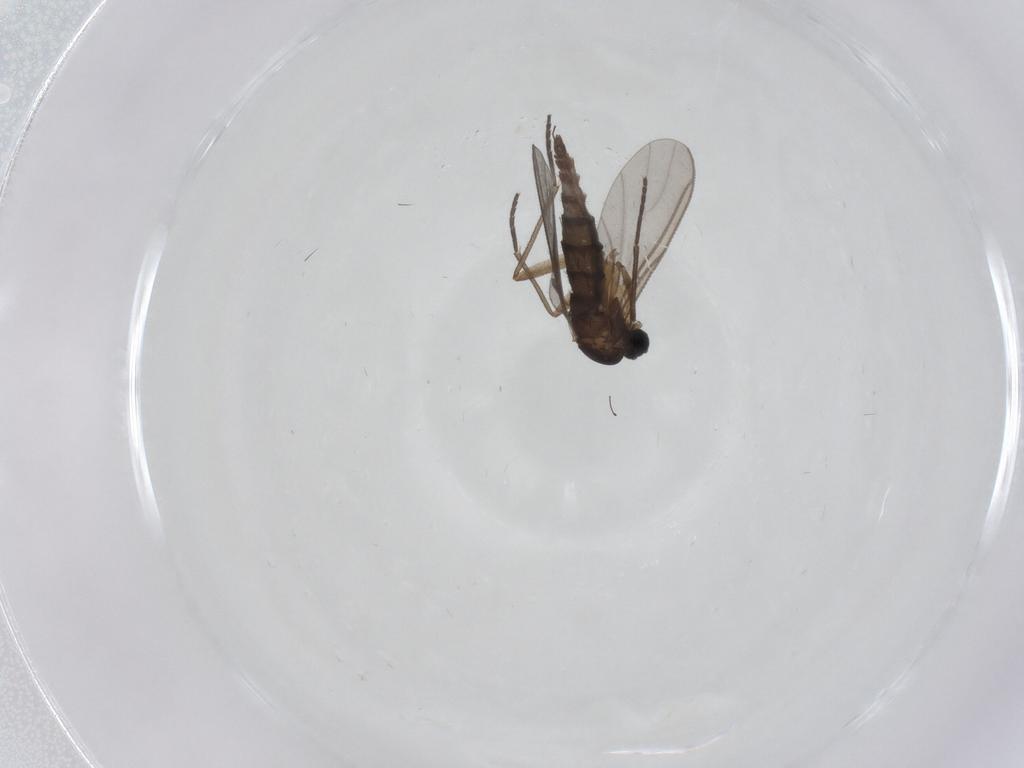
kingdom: Animalia
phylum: Arthropoda
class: Insecta
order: Diptera
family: Sciaridae
